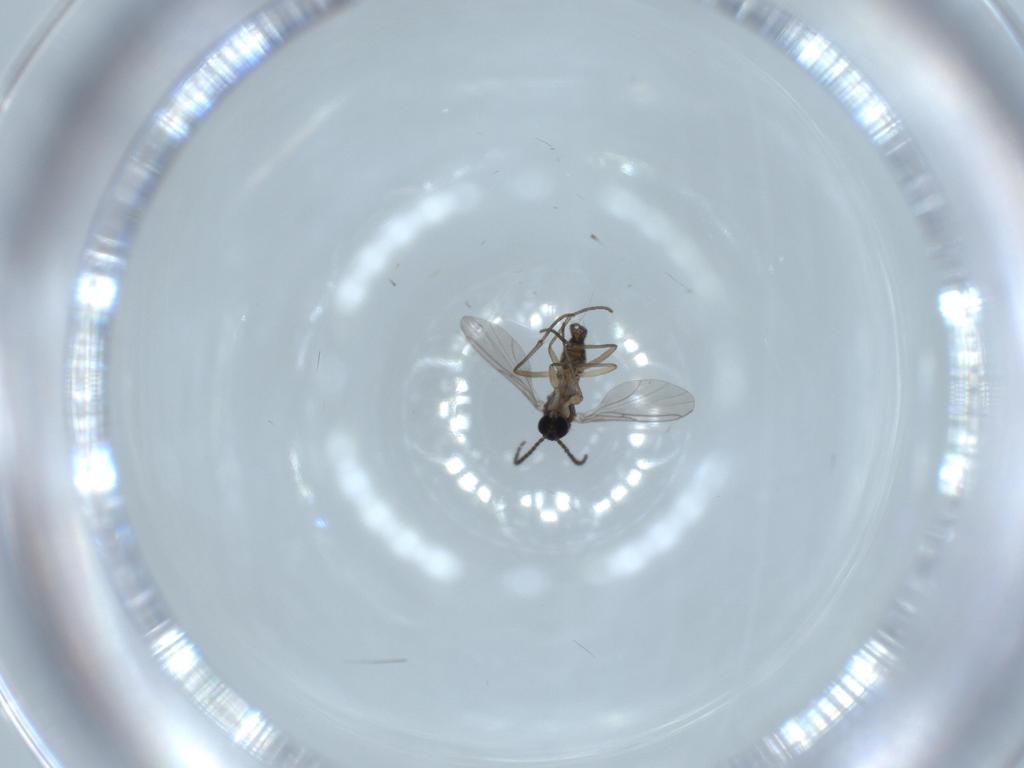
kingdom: Animalia
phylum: Arthropoda
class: Insecta
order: Diptera
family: Sciaridae
